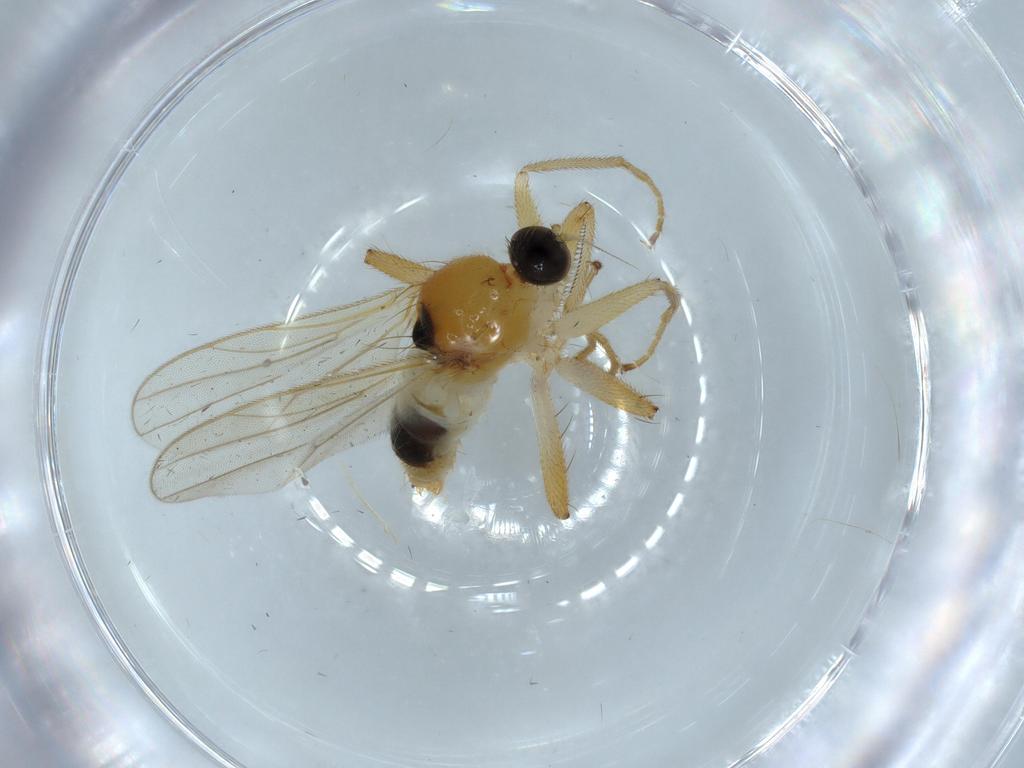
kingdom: Animalia
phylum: Arthropoda
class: Insecta
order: Diptera
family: Hybotidae
